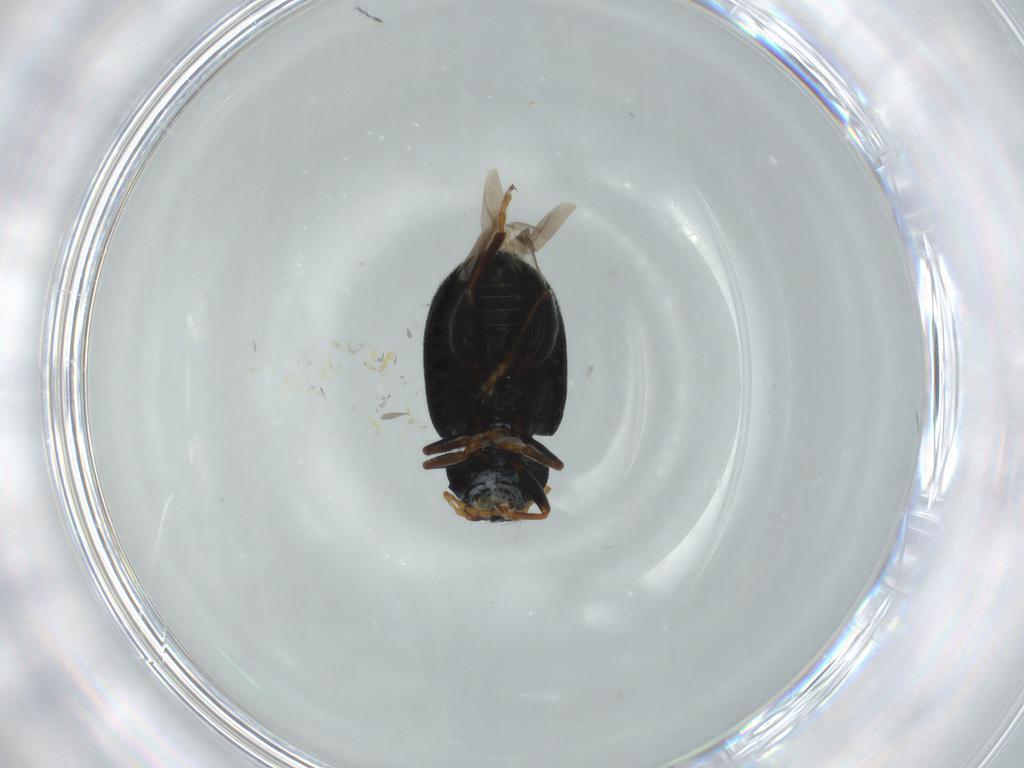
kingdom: Animalia
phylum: Arthropoda
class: Insecta
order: Coleoptera
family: Chrysomelidae
